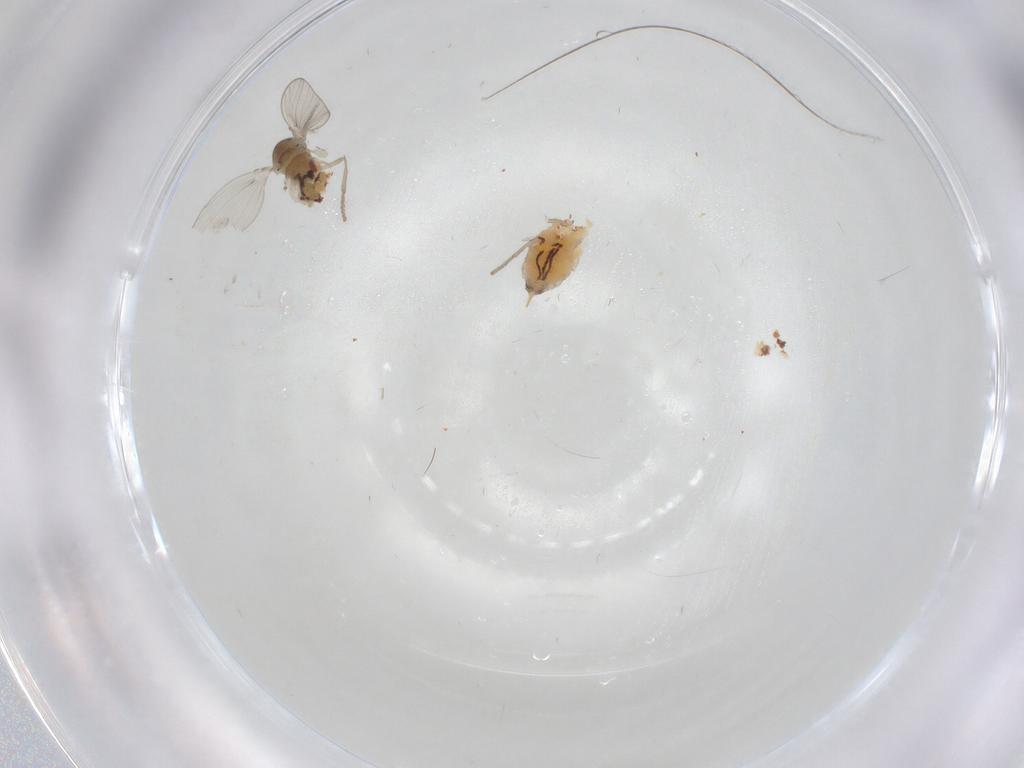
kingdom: Animalia
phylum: Arthropoda
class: Insecta
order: Diptera
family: Psychodidae
